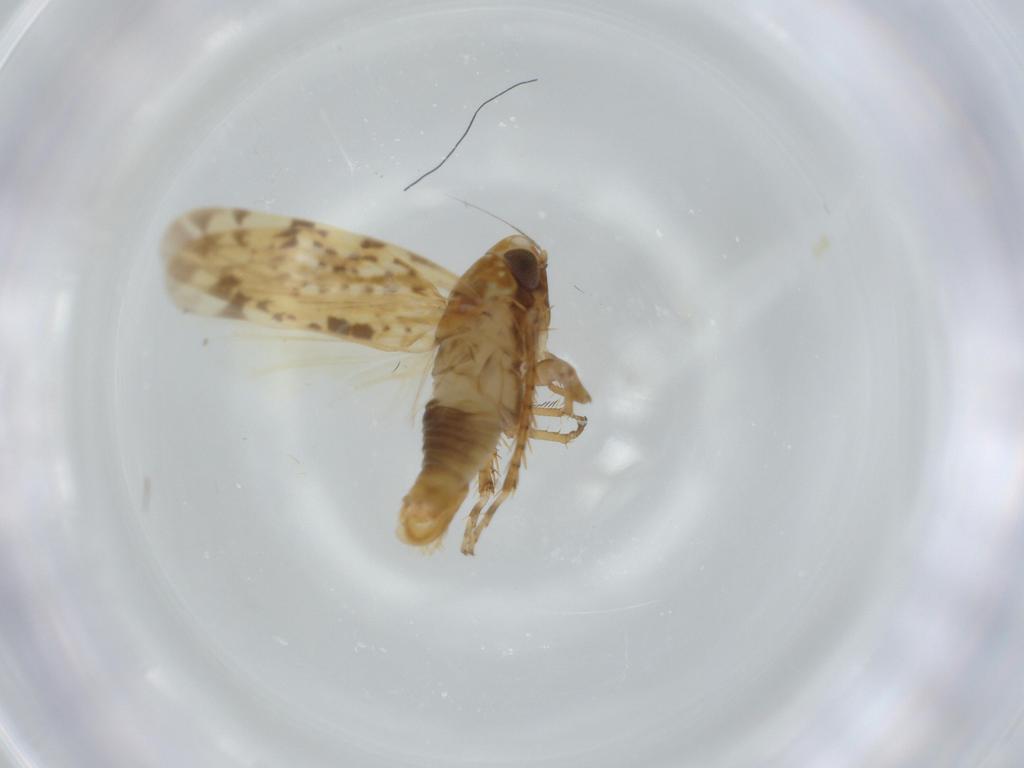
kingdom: Animalia
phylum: Arthropoda
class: Insecta
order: Hemiptera
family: Cicadellidae
